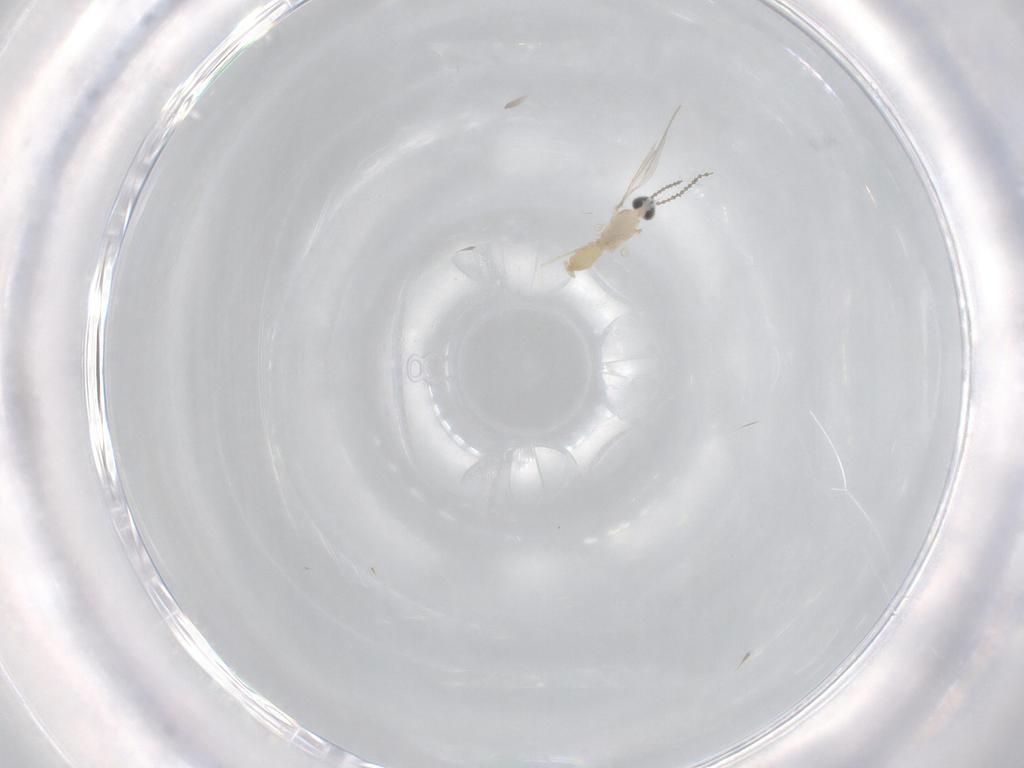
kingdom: Animalia
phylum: Arthropoda
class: Insecta
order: Diptera
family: Cecidomyiidae
